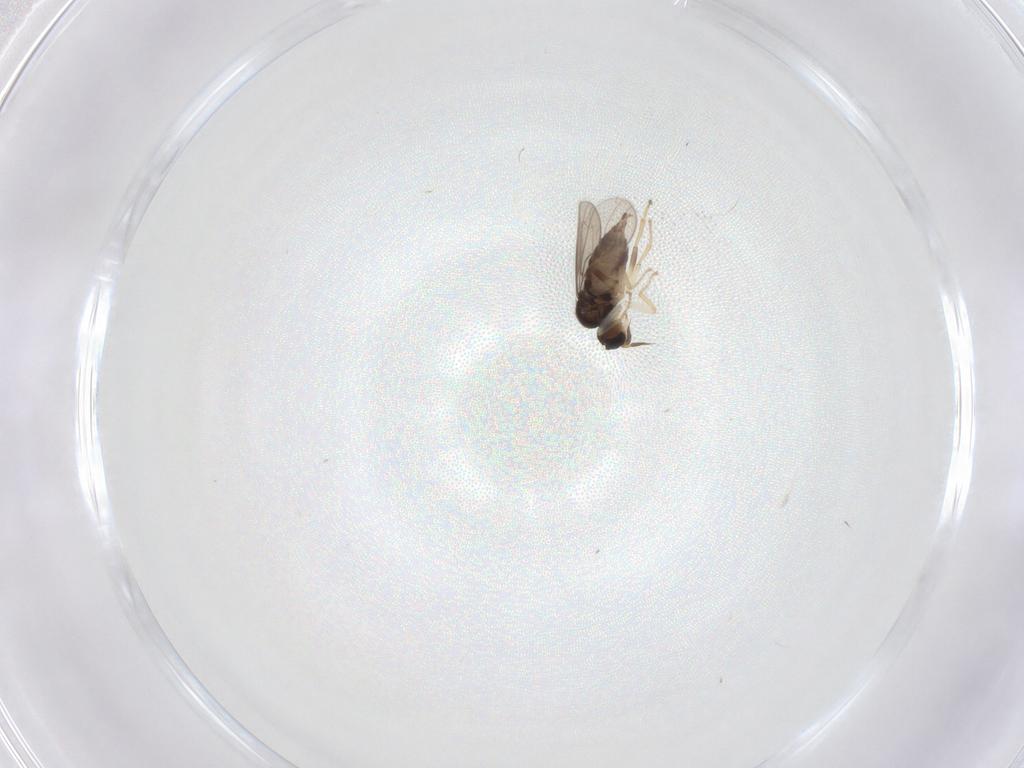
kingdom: Animalia
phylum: Arthropoda
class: Insecta
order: Diptera
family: Hybotidae
